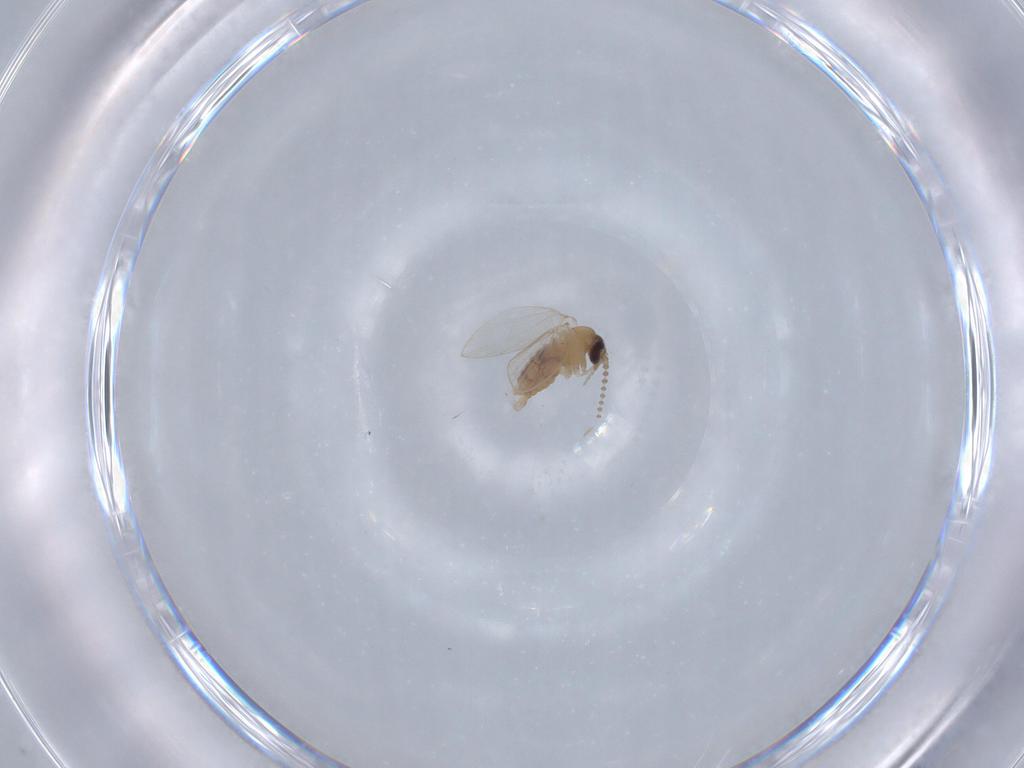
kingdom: Animalia
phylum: Arthropoda
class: Insecta
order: Diptera
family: Psychodidae
